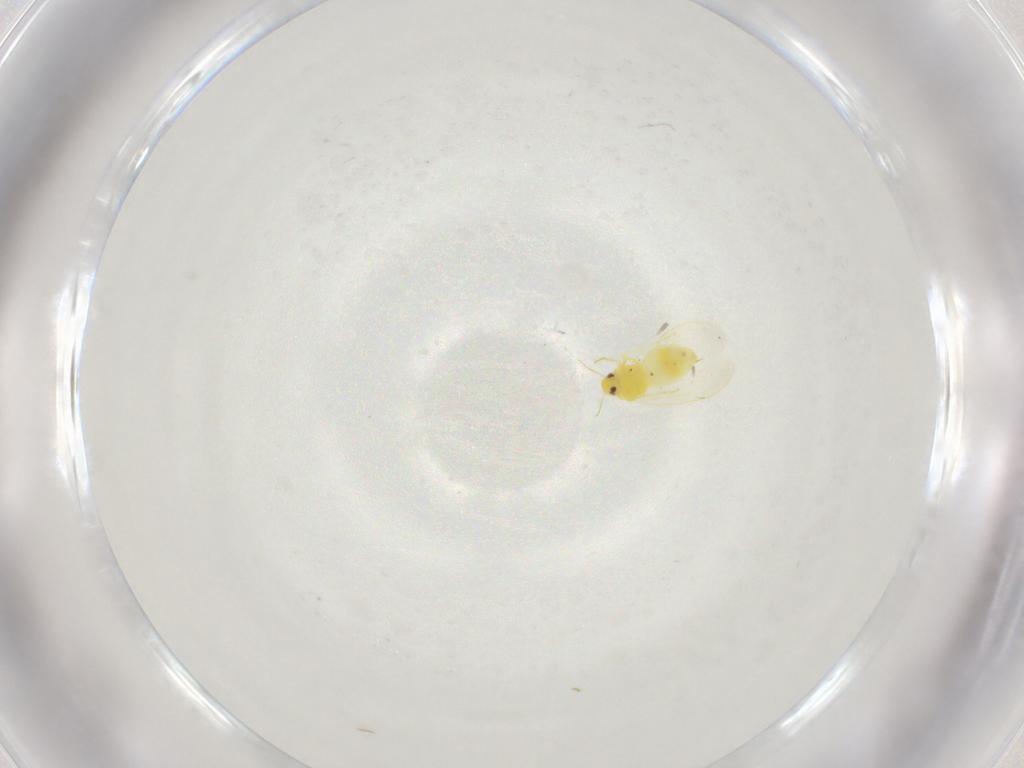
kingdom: Animalia
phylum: Arthropoda
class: Insecta
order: Hemiptera
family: Aleyrodidae
